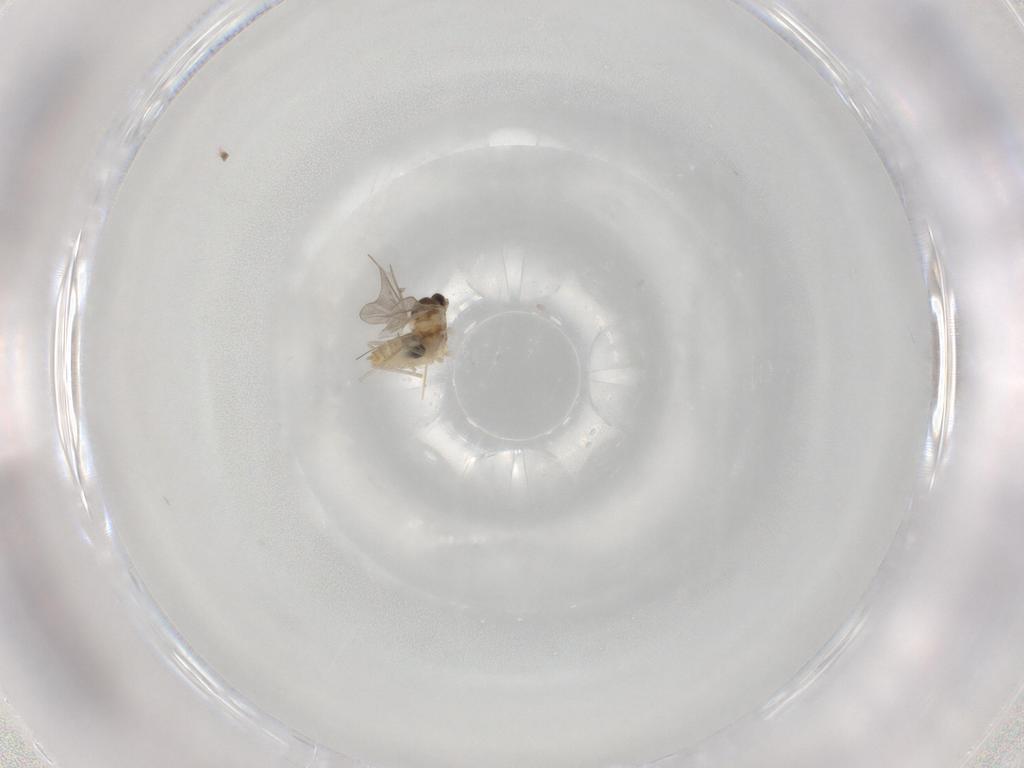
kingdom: Animalia
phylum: Arthropoda
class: Insecta
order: Diptera
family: Cecidomyiidae
